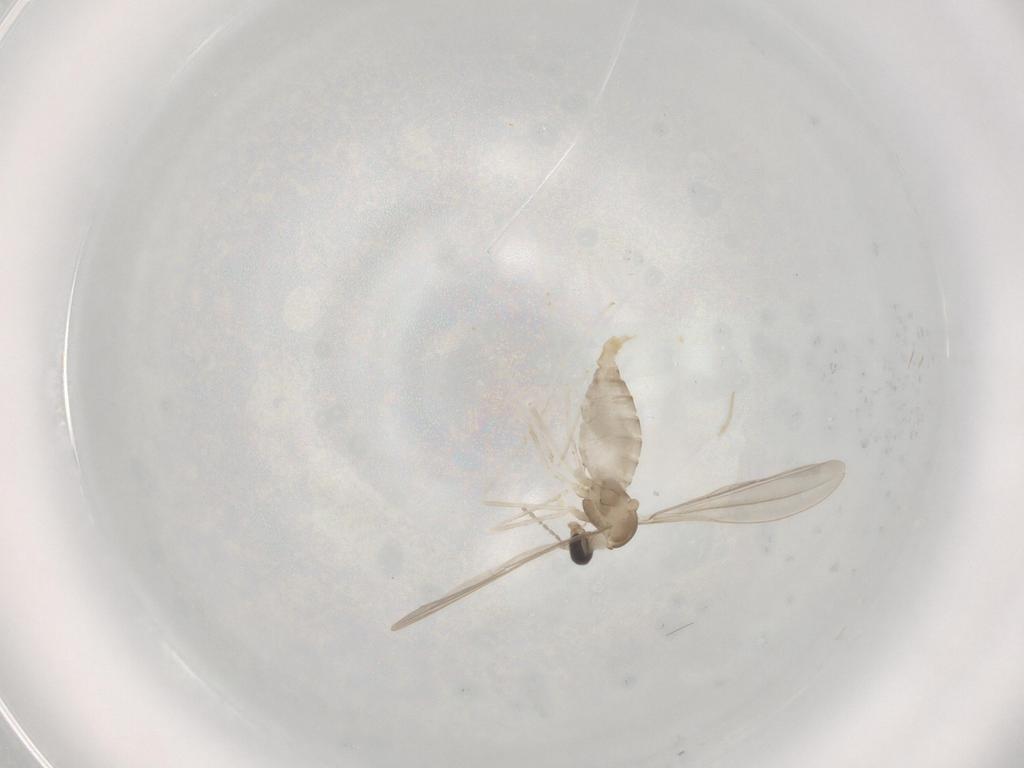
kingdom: Animalia
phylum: Arthropoda
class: Insecta
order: Diptera
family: Cecidomyiidae
